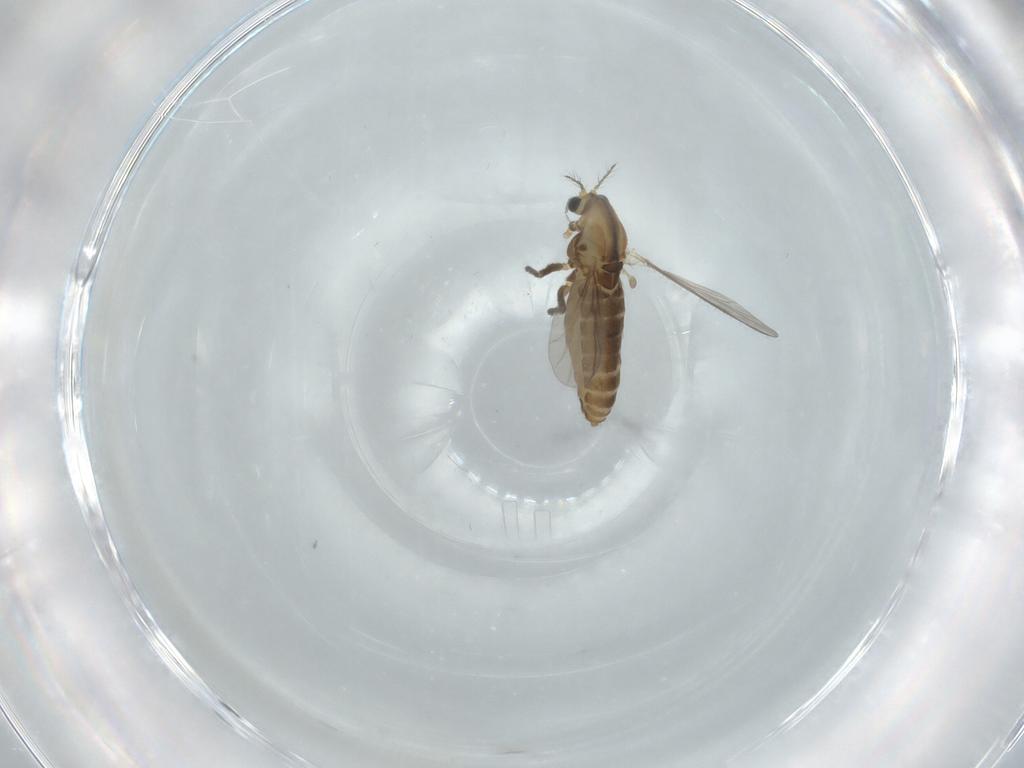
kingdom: Animalia
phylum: Arthropoda
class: Insecta
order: Diptera
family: Chironomidae
